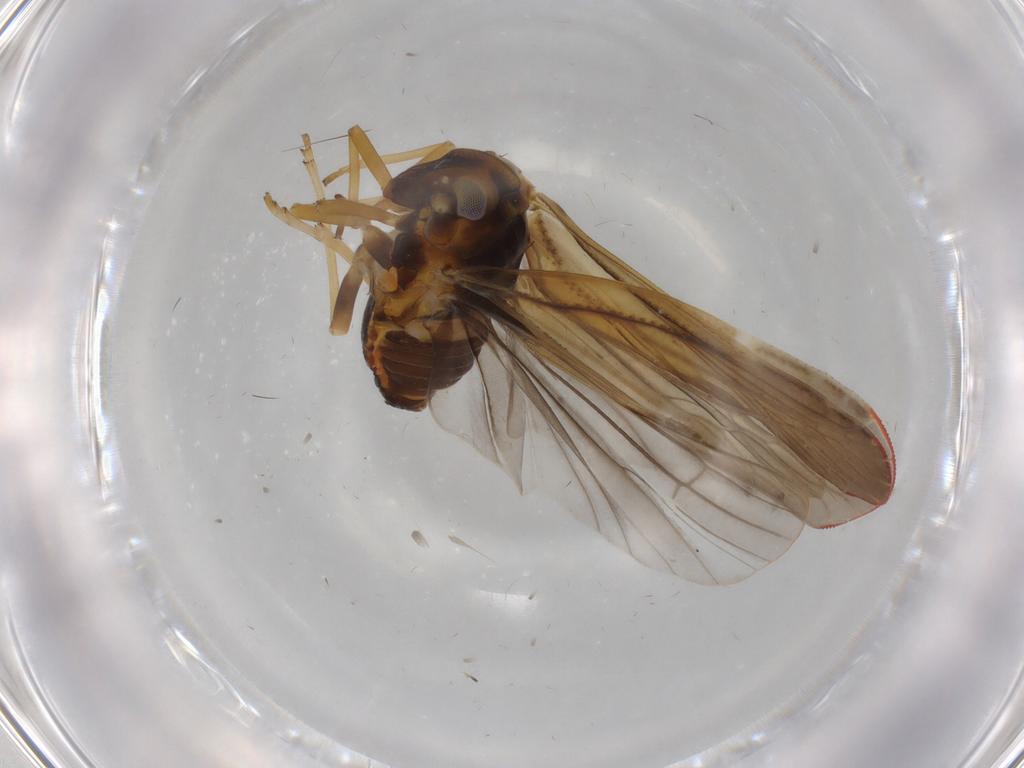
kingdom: Animalia
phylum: Arthropoda
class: Insecta
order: Hemiptera
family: Derbidae
